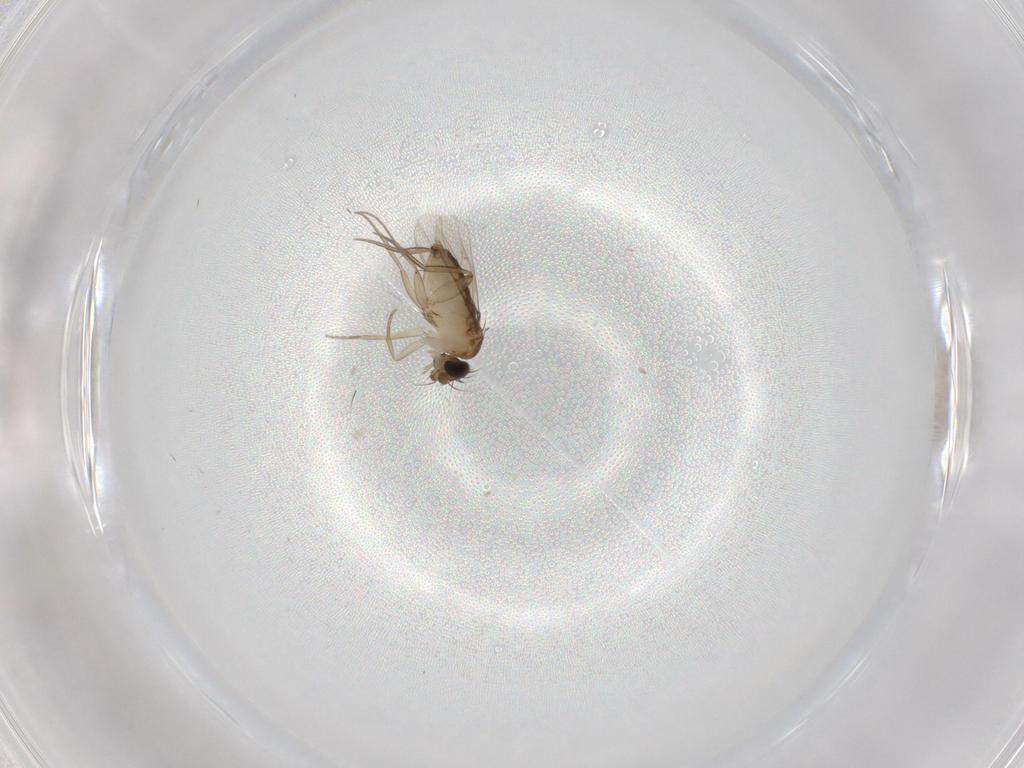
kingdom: Animalia
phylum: Arthropoda
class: Insecta
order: Diptera
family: Phoridae
